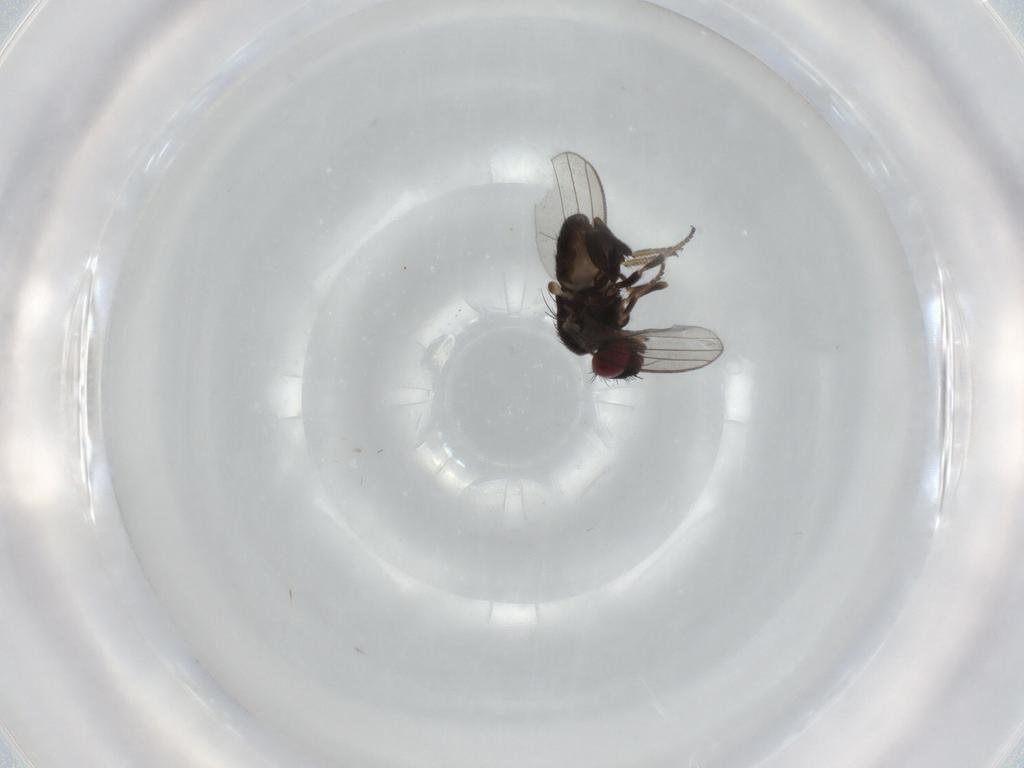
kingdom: Animalia
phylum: Arthropoda
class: Insecta
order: Diptera
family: Milichiidae
